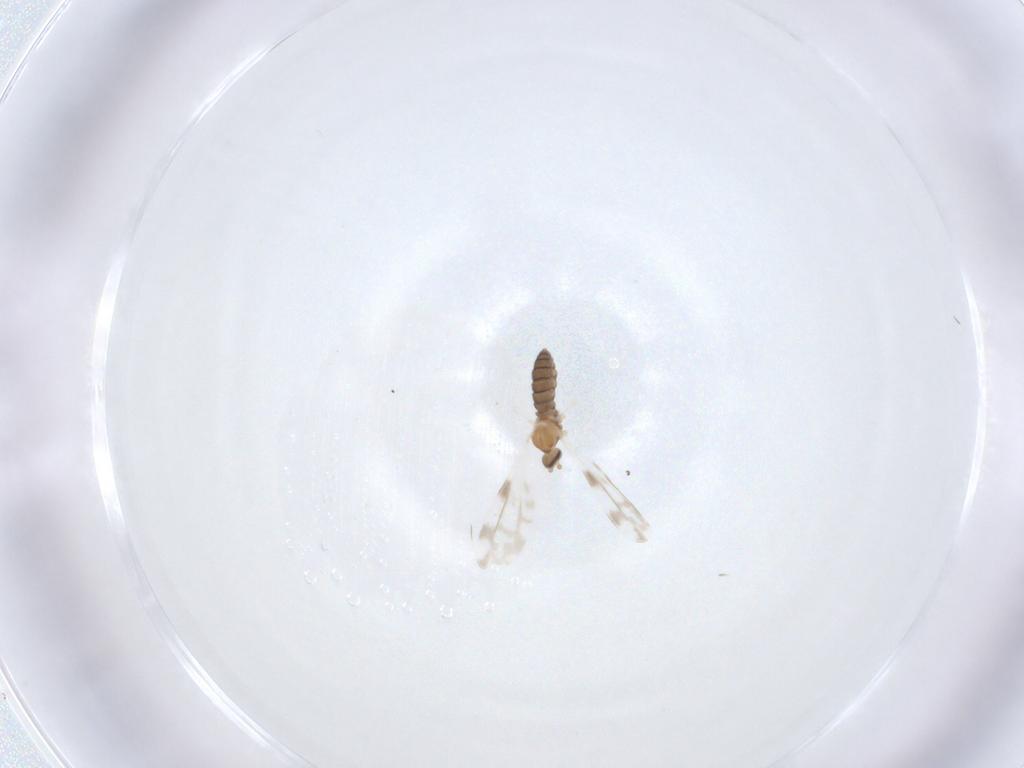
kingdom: Animalia
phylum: Arthropoda
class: Insecta
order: Diptera
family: Cecidomyiidae
